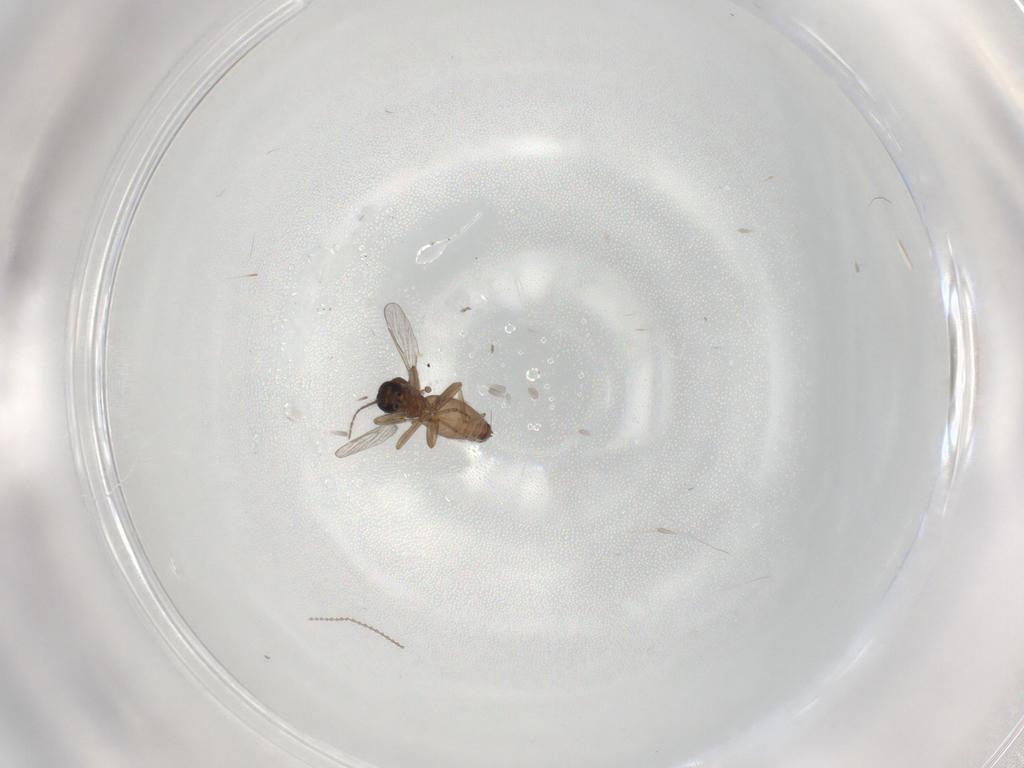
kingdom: Animalia
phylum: Arthropoda
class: Insecta
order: Diptera
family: Ceratopogonidae
